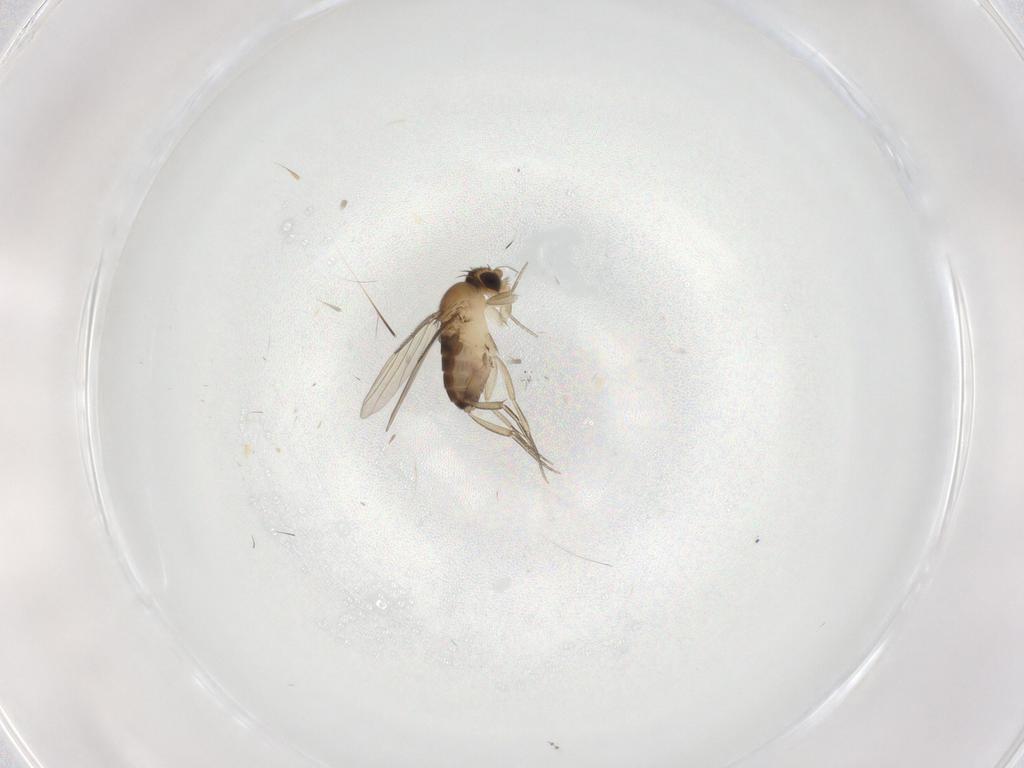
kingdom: Animalia
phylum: Arthropoda
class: Insecta
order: Diptera
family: Phoridae
